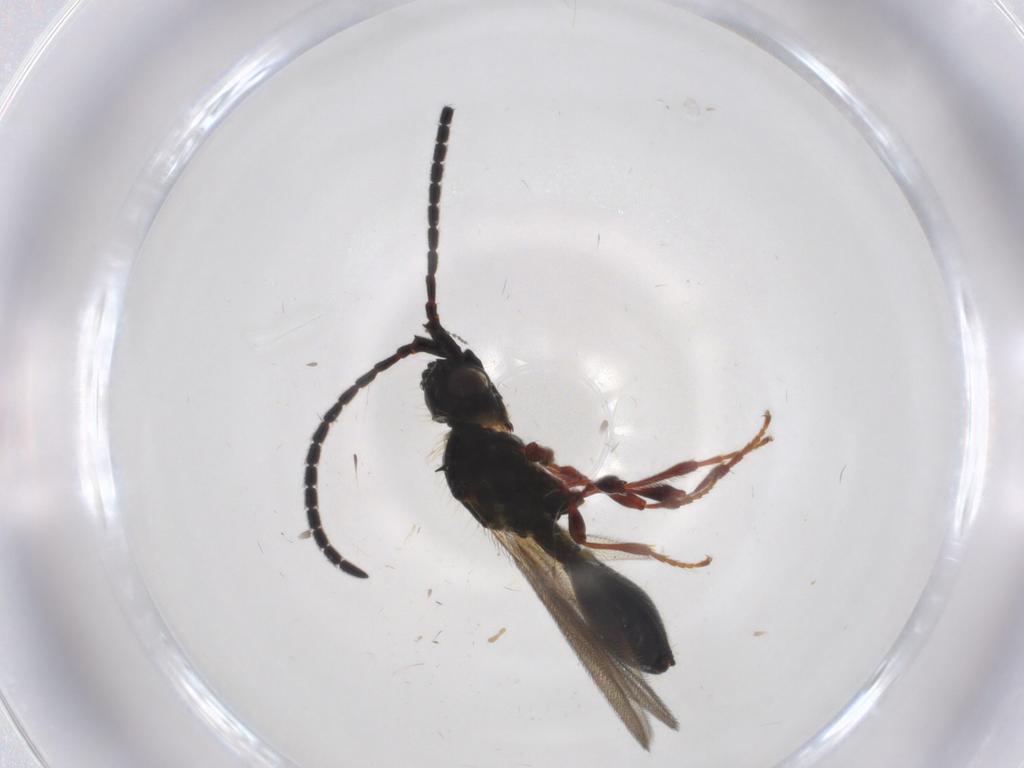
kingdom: Animalia
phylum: Arthropoda
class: Insecta
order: Hymenoptera
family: Diapriidae
